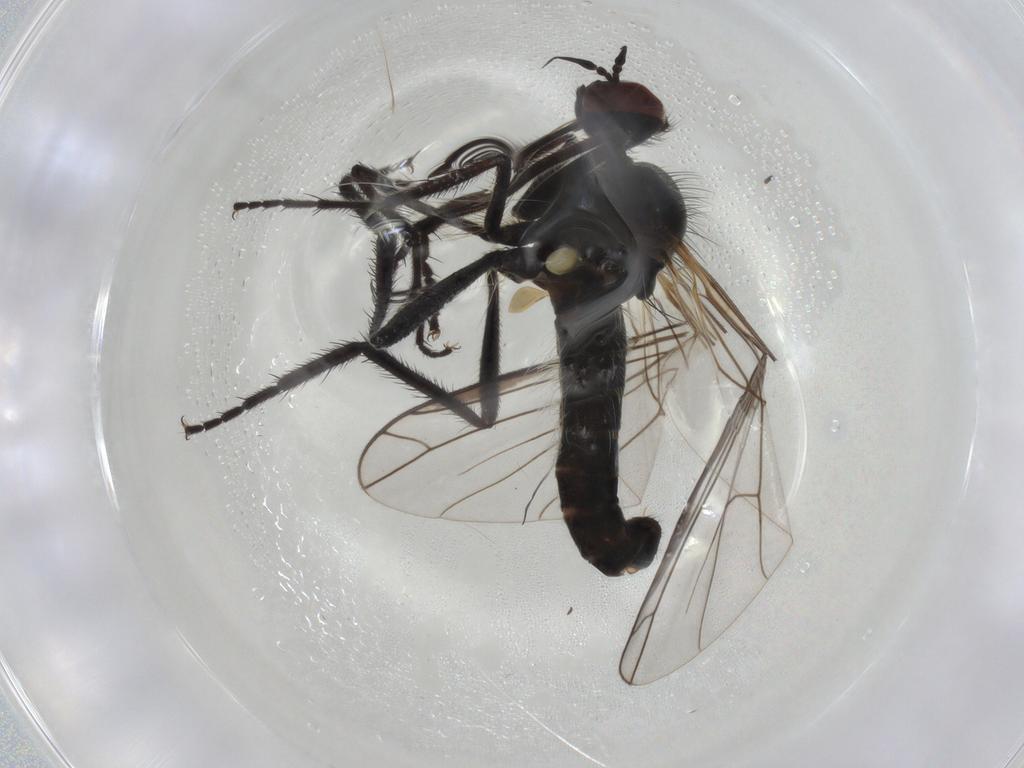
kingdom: Animalia
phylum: Arthropoda
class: Insecta
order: Diptera
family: Empididae
